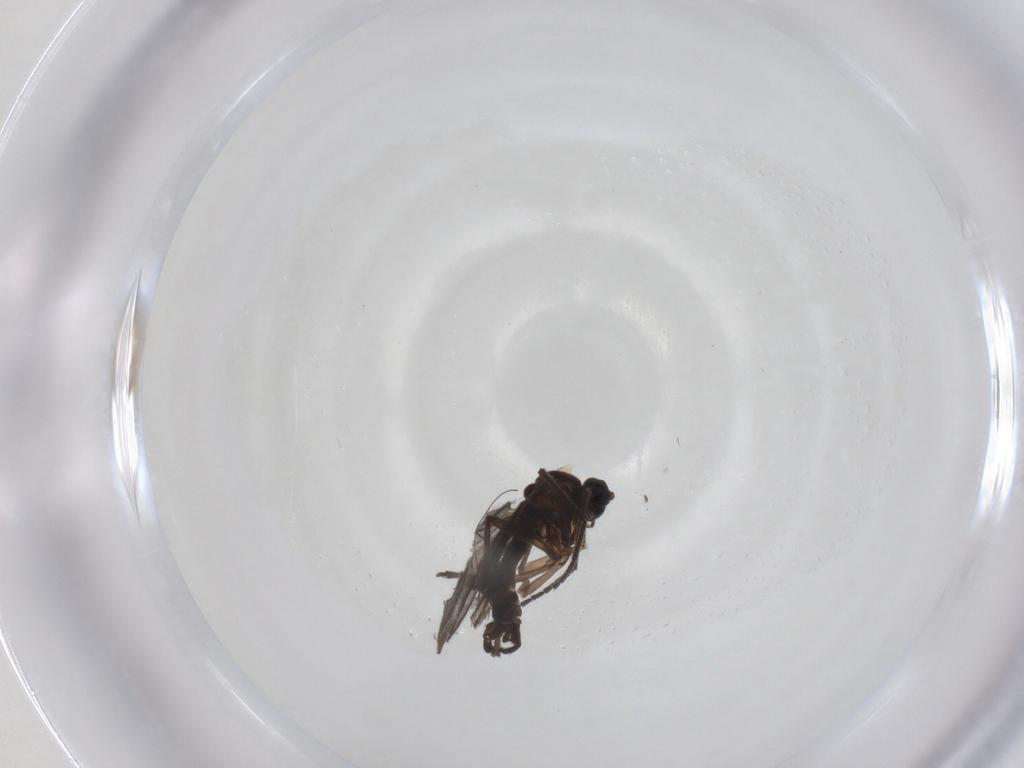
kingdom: Animalia
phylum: Arthropoda
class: Insecta
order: Diptera
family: Sciaridae
